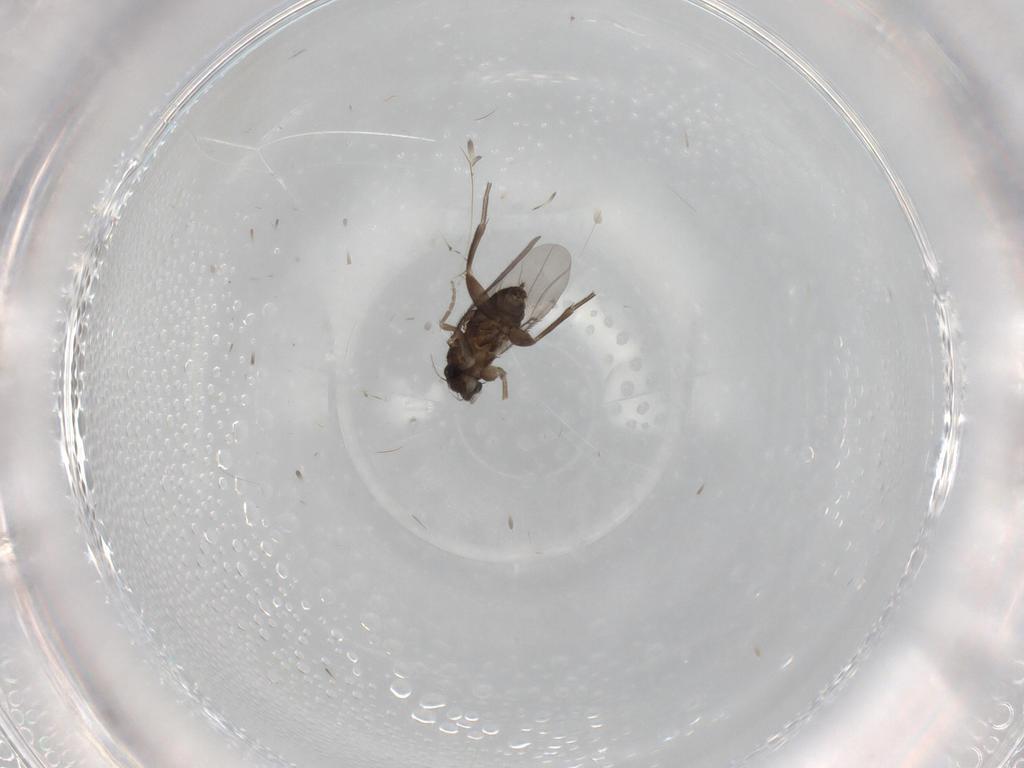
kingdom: Animalia
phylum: Arthropoda
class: Insecta
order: Diptera
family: Phoridae
